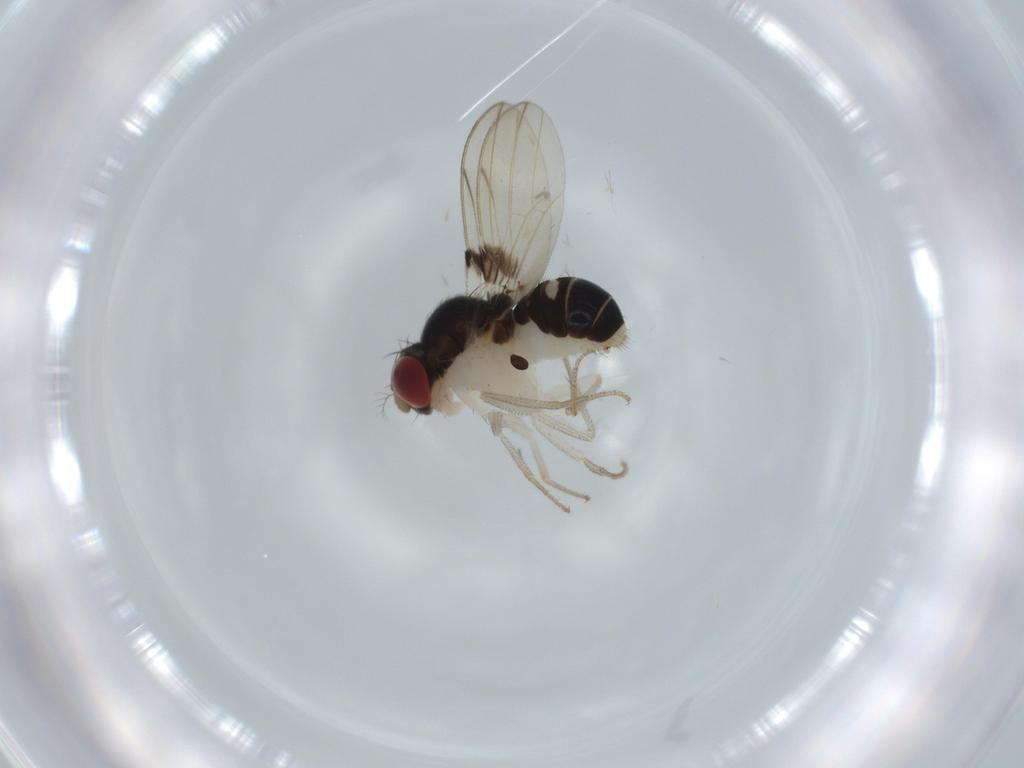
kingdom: Animalia
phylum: Arthropoda
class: Insecta
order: Diptera
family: Drosophilidae
